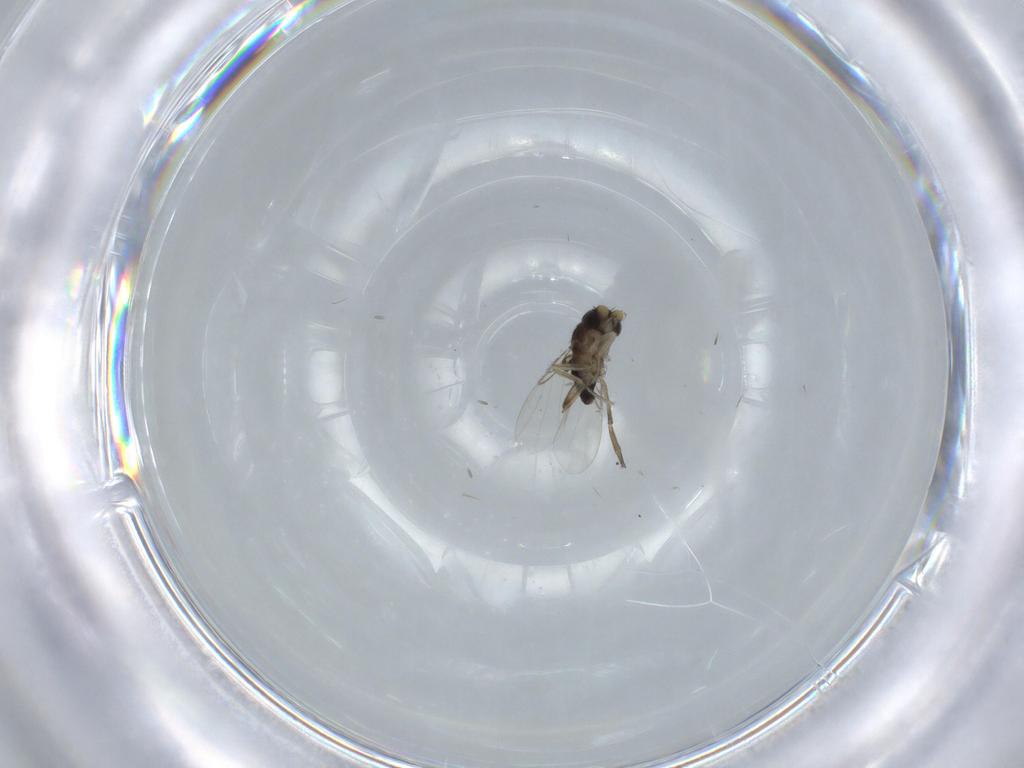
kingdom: Animalia
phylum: Arthropoda
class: Insecta
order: Diptera
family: Phoridae
